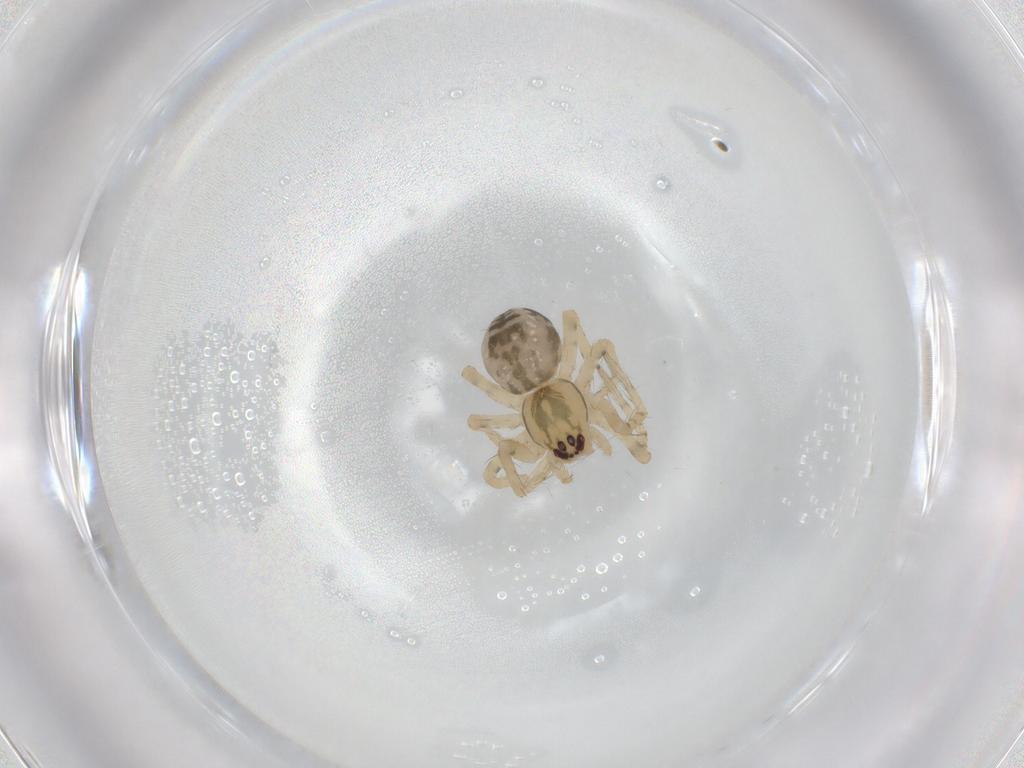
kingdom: Animalia
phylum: Arthropoda
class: Arachnida
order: Araneae
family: Amaurobiidae
